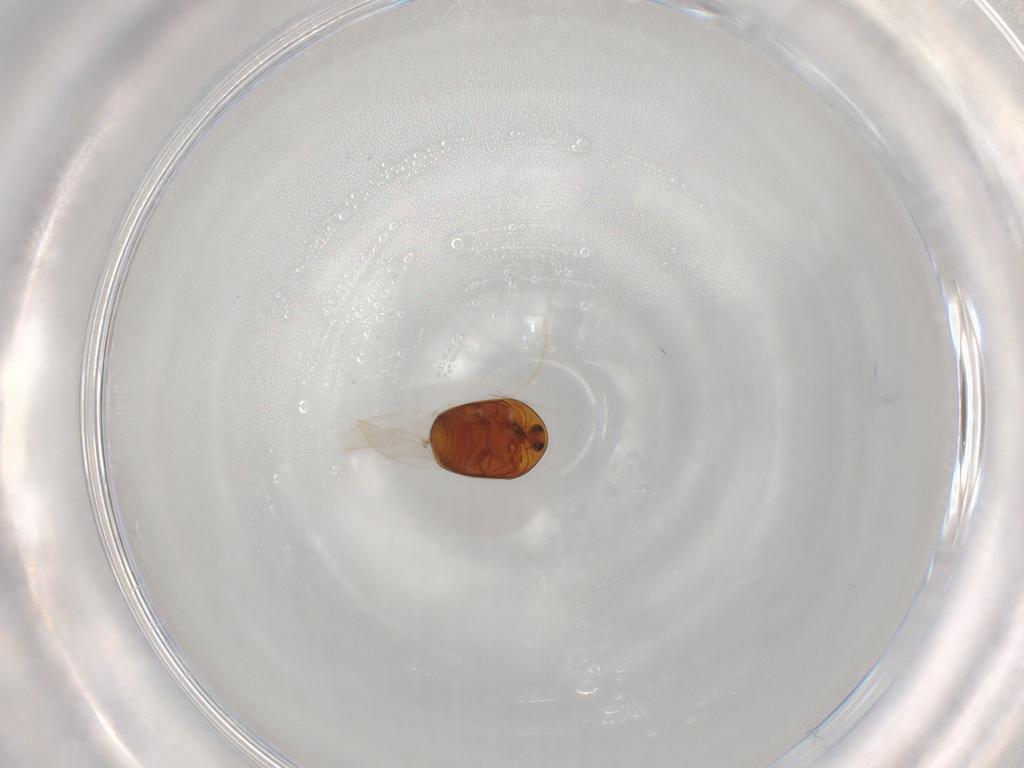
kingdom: Animalia
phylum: Arthropoda
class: Insecta
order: Coleoptera
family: Corylophidae
